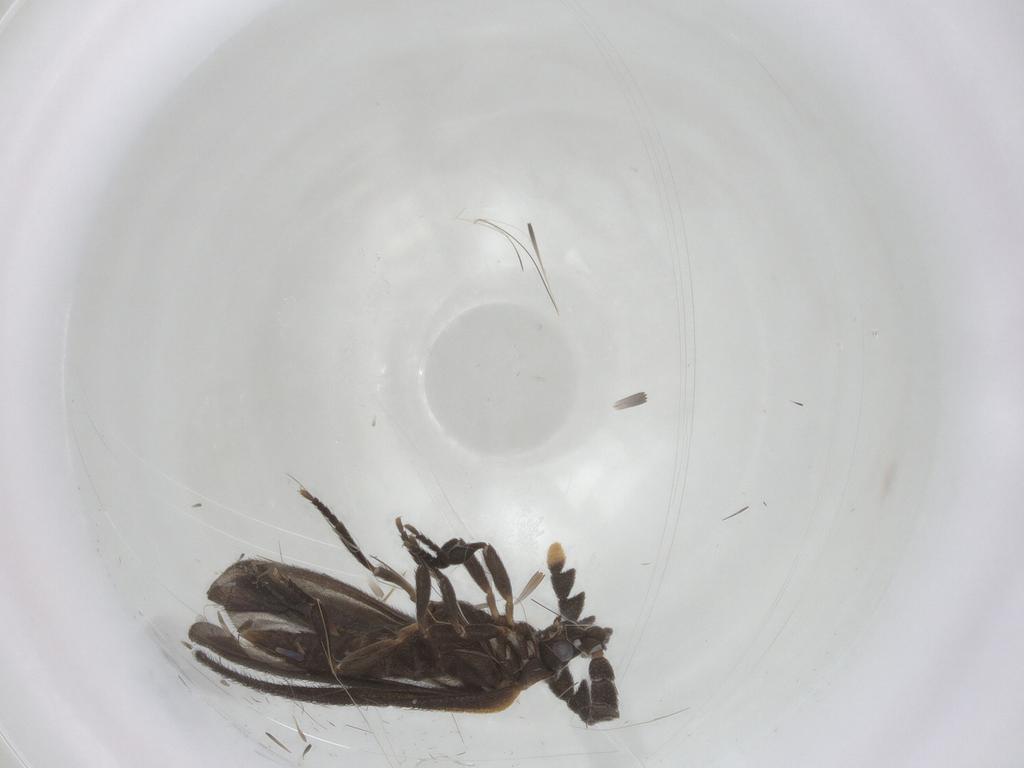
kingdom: Animalia
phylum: Arthropoda
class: Insecta
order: Coleoptera
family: Lycidae
